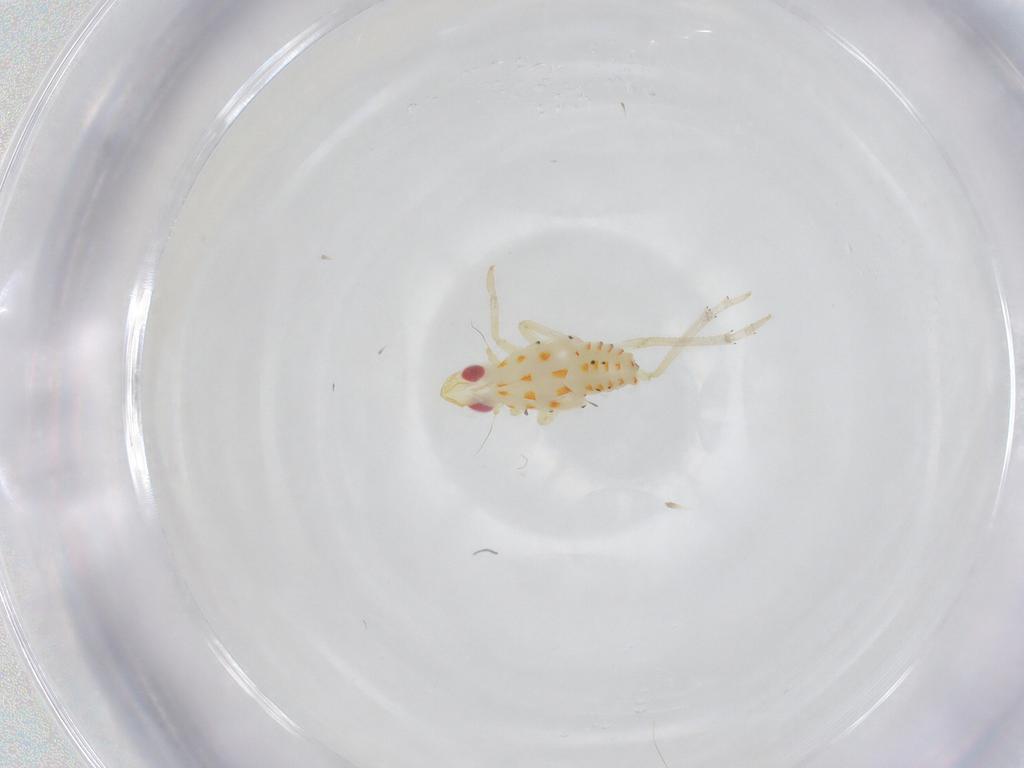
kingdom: Animalia
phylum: Arthropoda
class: Insecta
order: Hemiptera
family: Tropiduchidae
